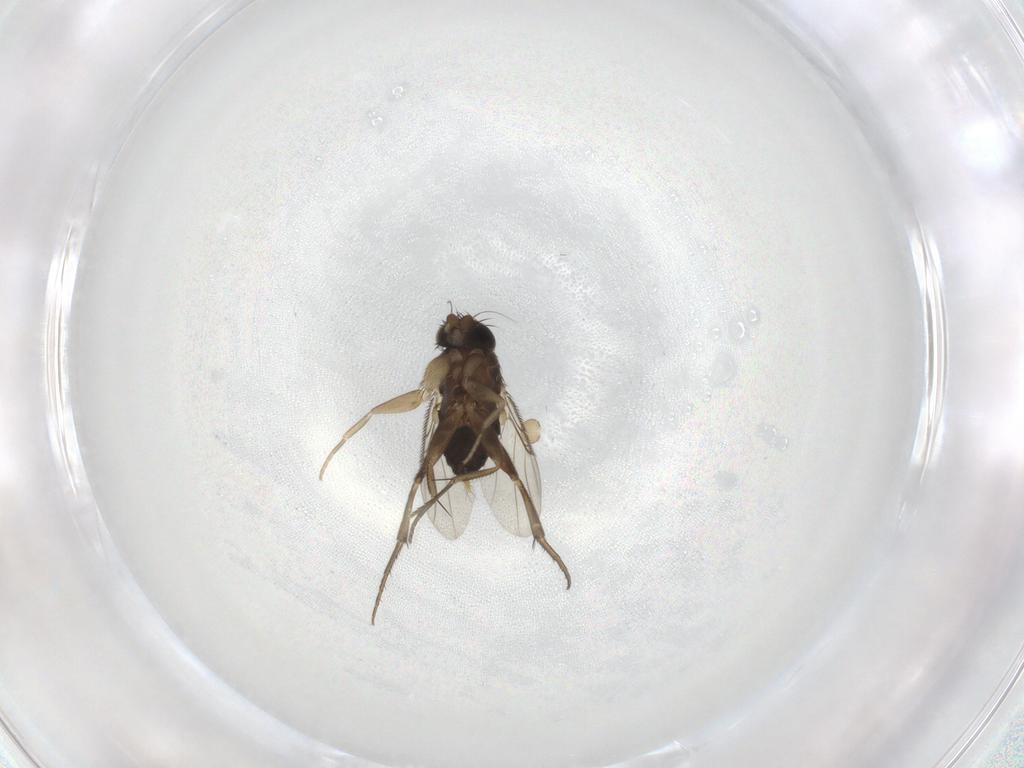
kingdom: Animalia
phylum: Arthropoda
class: Insecta
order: Diptera
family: Phoridae
